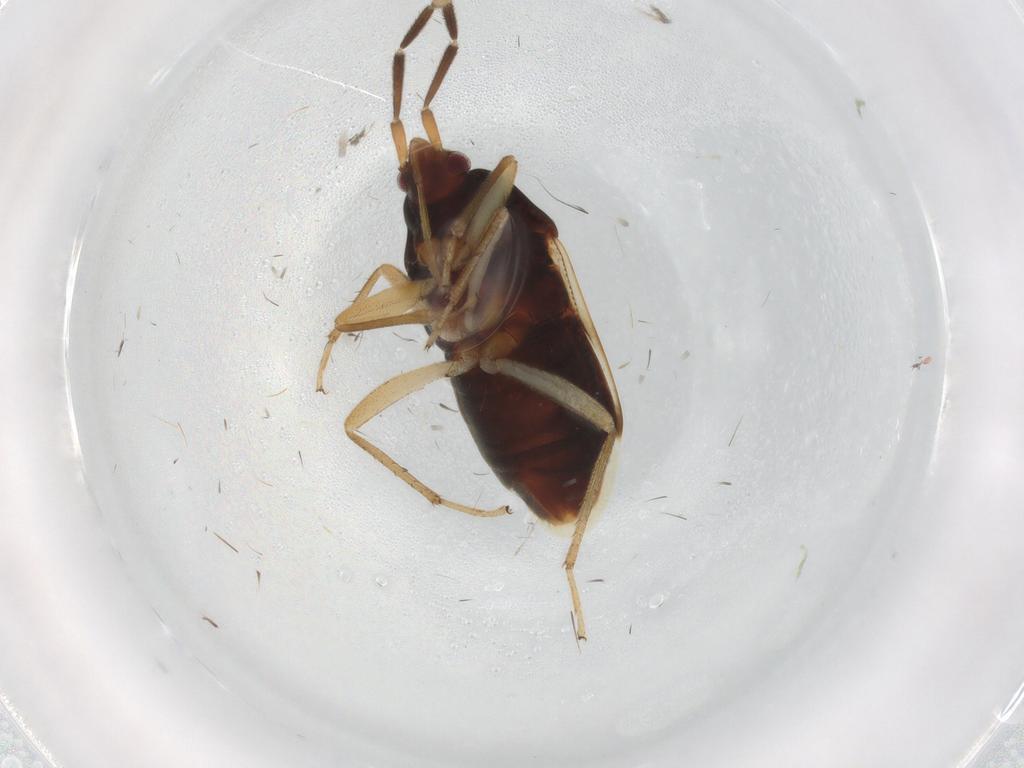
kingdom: Animalia
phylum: Arthropoda
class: Insecta
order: Hemiptera
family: Rhyparochromidae
